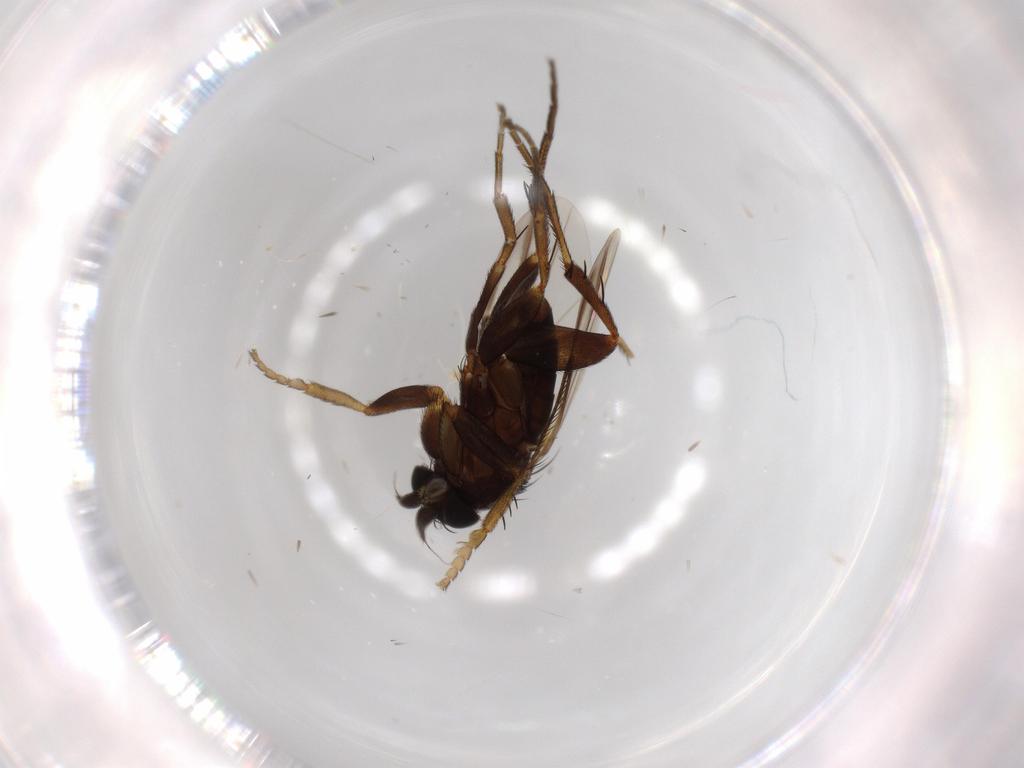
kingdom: Animalia
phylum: Arthropoda
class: Insecta
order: Diptera
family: Phoridae
